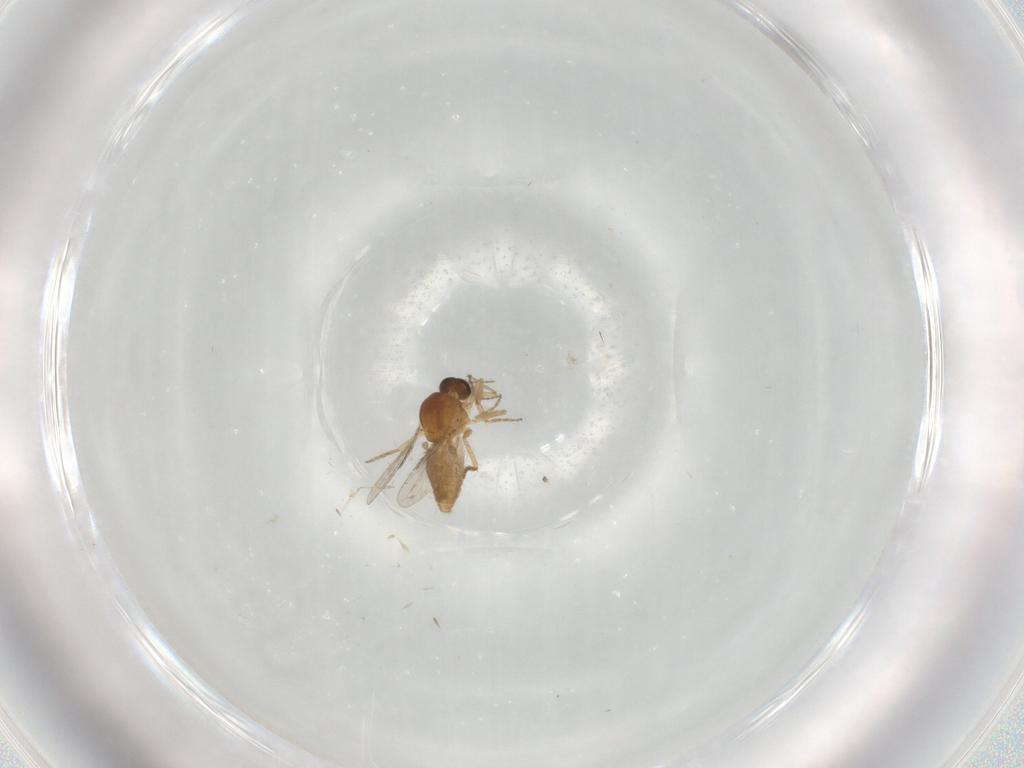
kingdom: Animalia
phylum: Arthropoda
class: Insecta
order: Diptera
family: Ceratopogonidae
